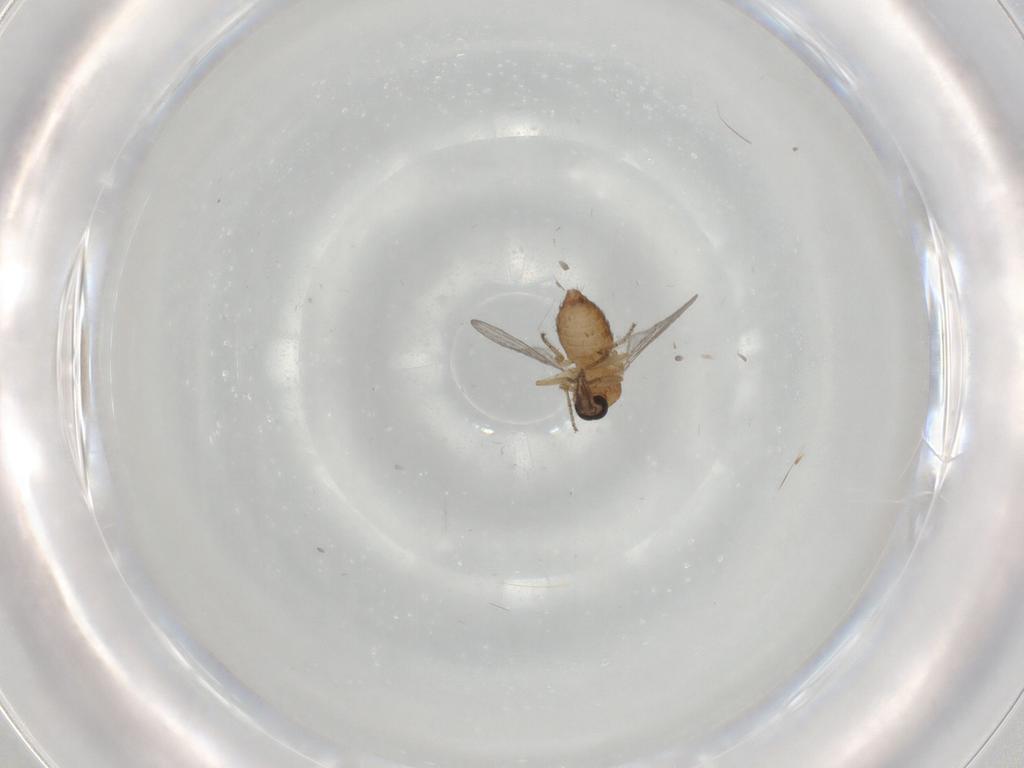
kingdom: Animalia
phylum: Arthropoda
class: Insecta
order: Diptera
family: Ceratopogonidae
